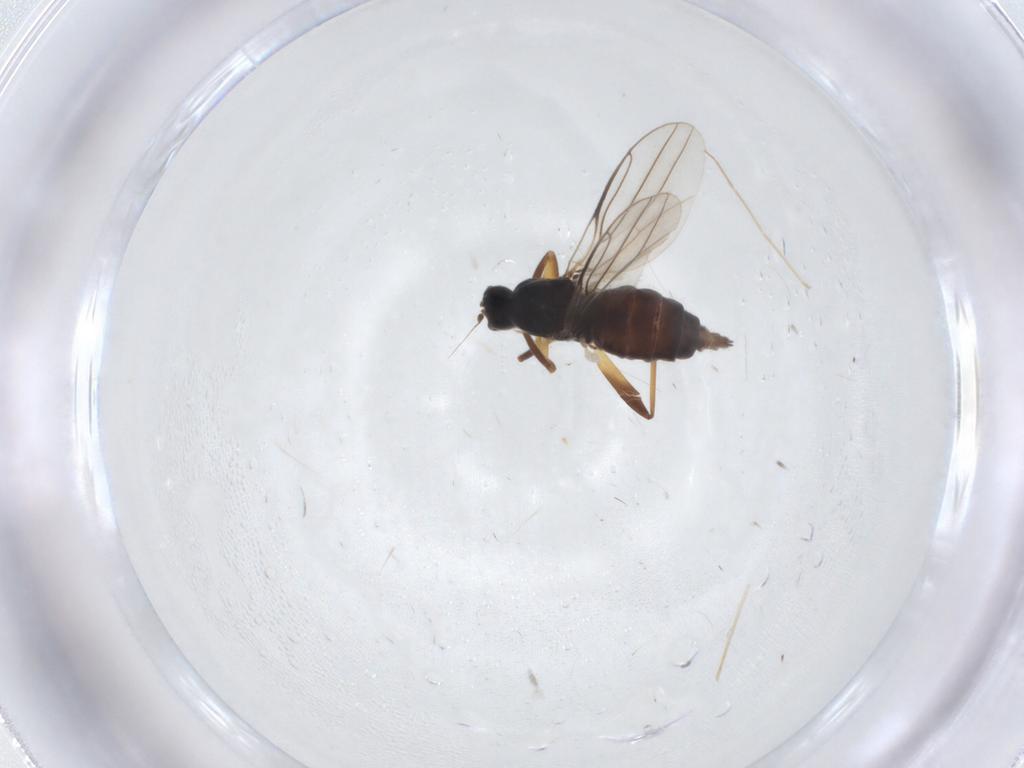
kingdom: Animalia
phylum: Arthropoda
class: Insecta
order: Diptera
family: Hybotidae
